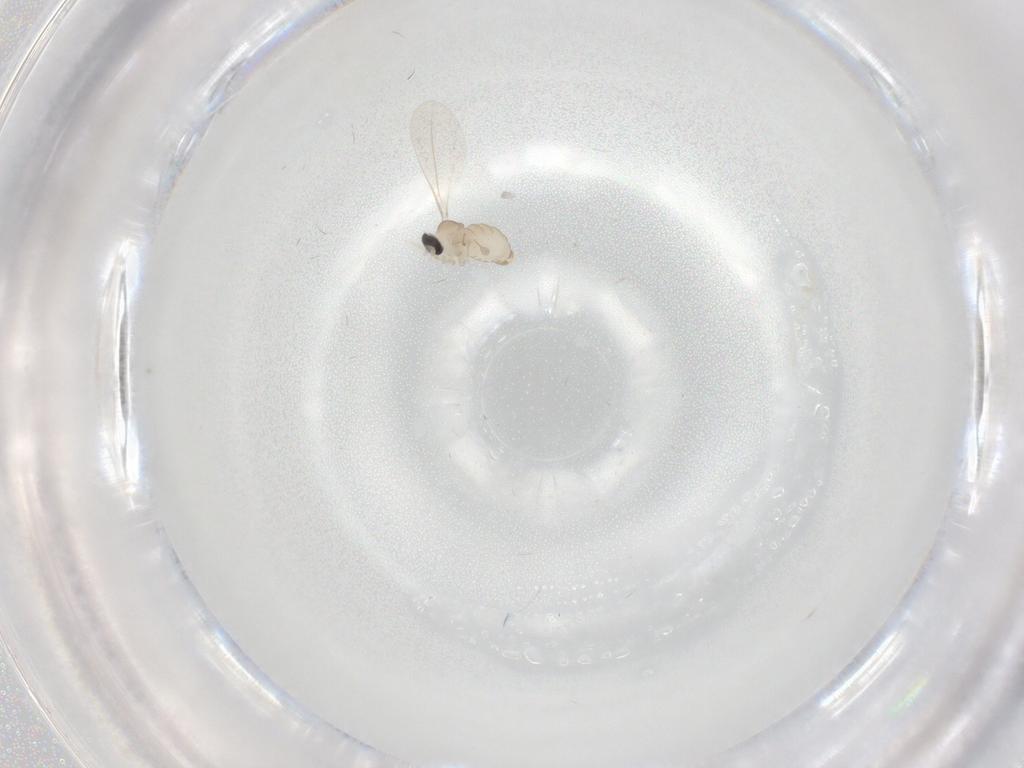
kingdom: Animalia
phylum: Arthropoda
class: Insecta
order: Diptera
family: Cecidomyiidae
